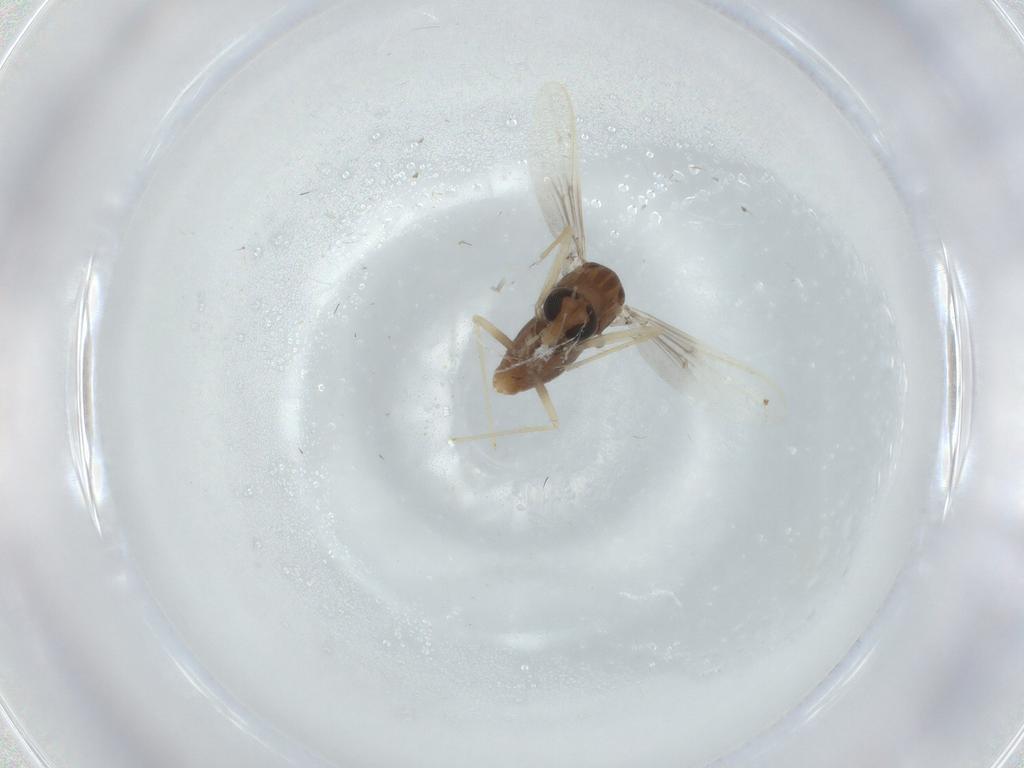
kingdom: Animalia
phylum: Arthropoda
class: Insecta
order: Diptera
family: Chironomidae
